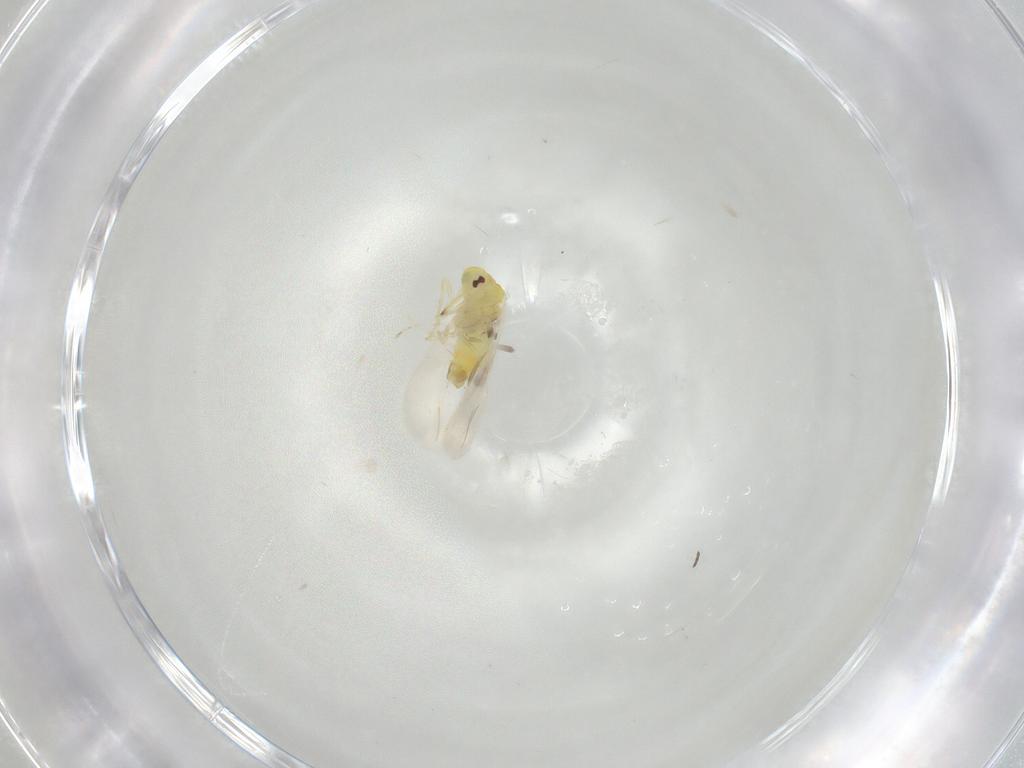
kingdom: Animalia
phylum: Arthropoda
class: Insecta
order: Hemiptera
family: Aleyrodidae
